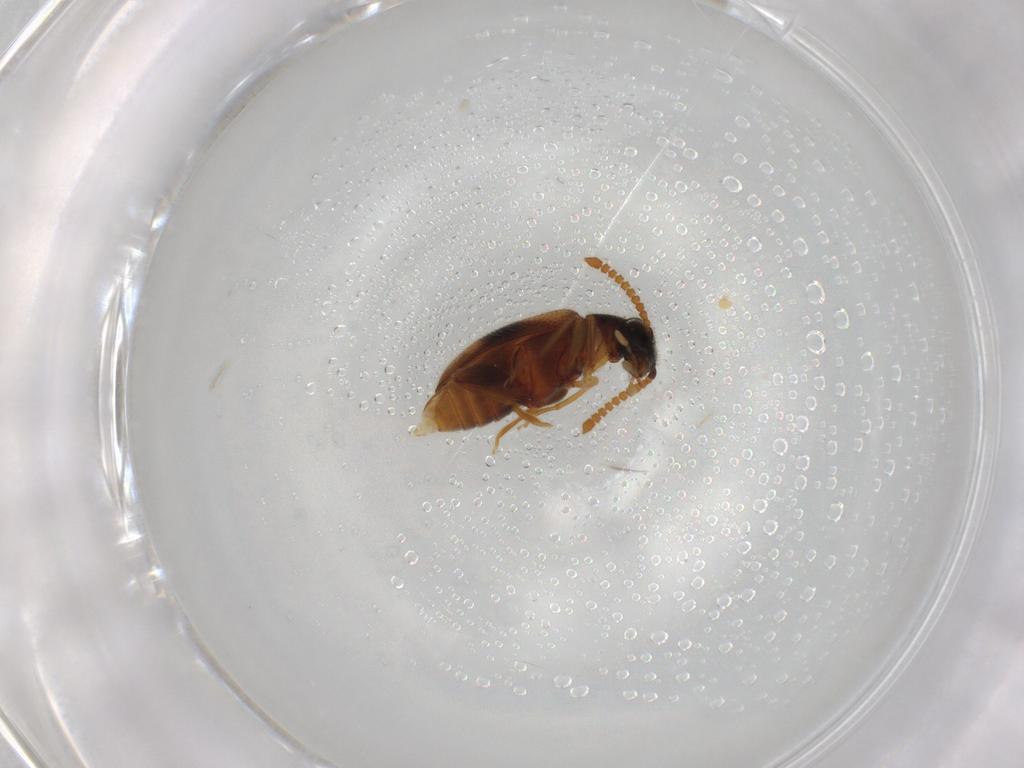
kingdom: Animalia
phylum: Arthropoda
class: Insecta
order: Coleoptera
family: Aderidae
